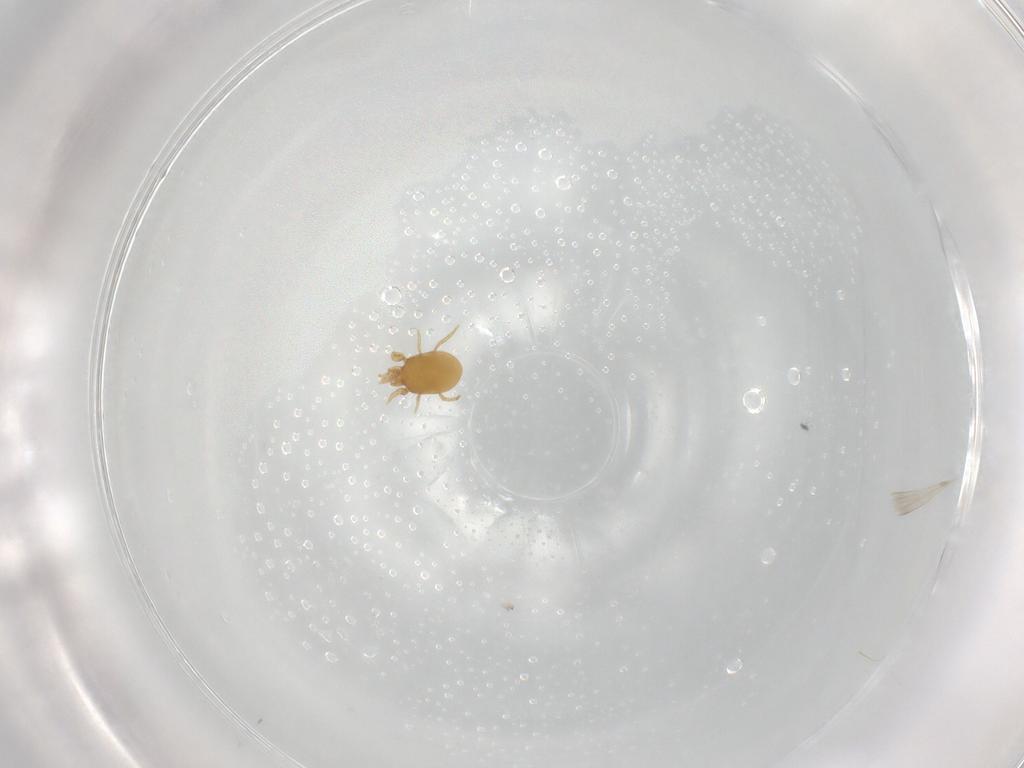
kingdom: Animalia
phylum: Arthropoda
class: Arachnida
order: Mesostigmata
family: Pachylaelapidae
